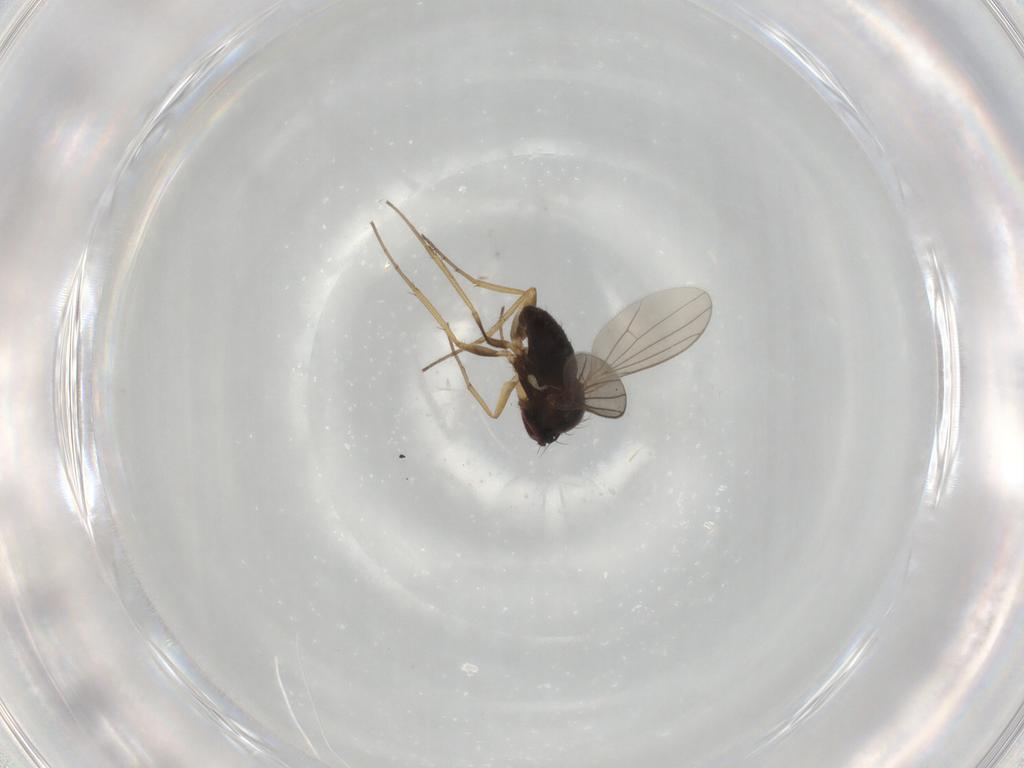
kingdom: Animalia
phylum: Arthropoda
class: Insecta
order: Diptera
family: Dolichopodidae
